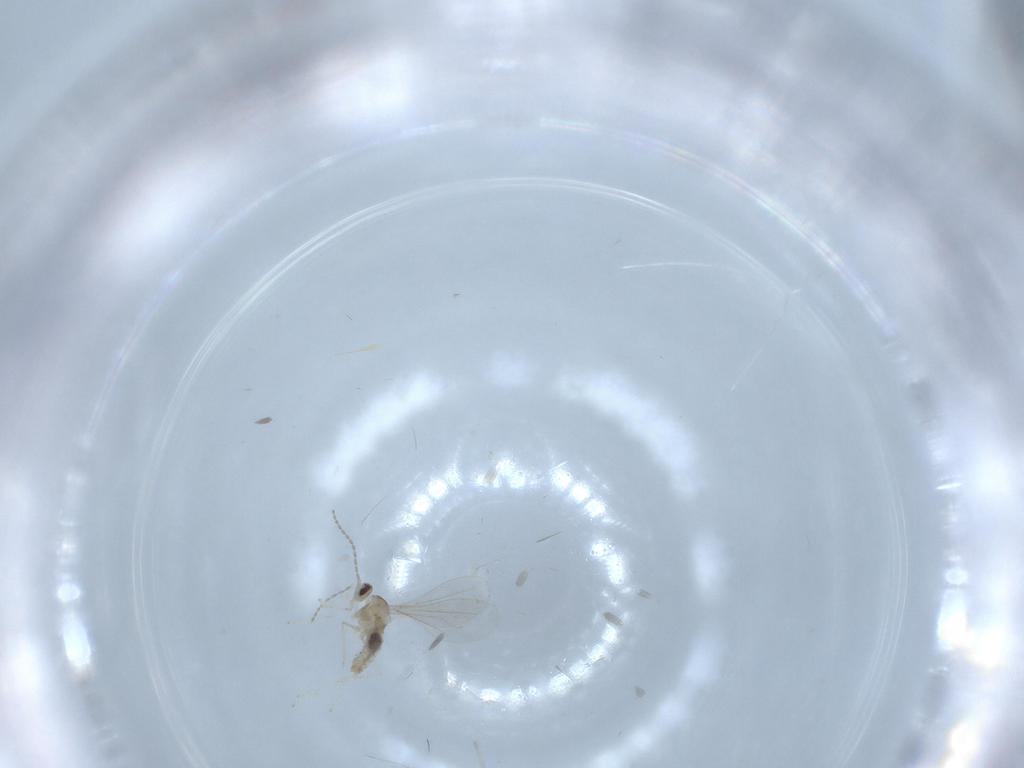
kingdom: Animalia
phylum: Arthropoda
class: Insecta
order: Diptera
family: Cecidomyiidae
